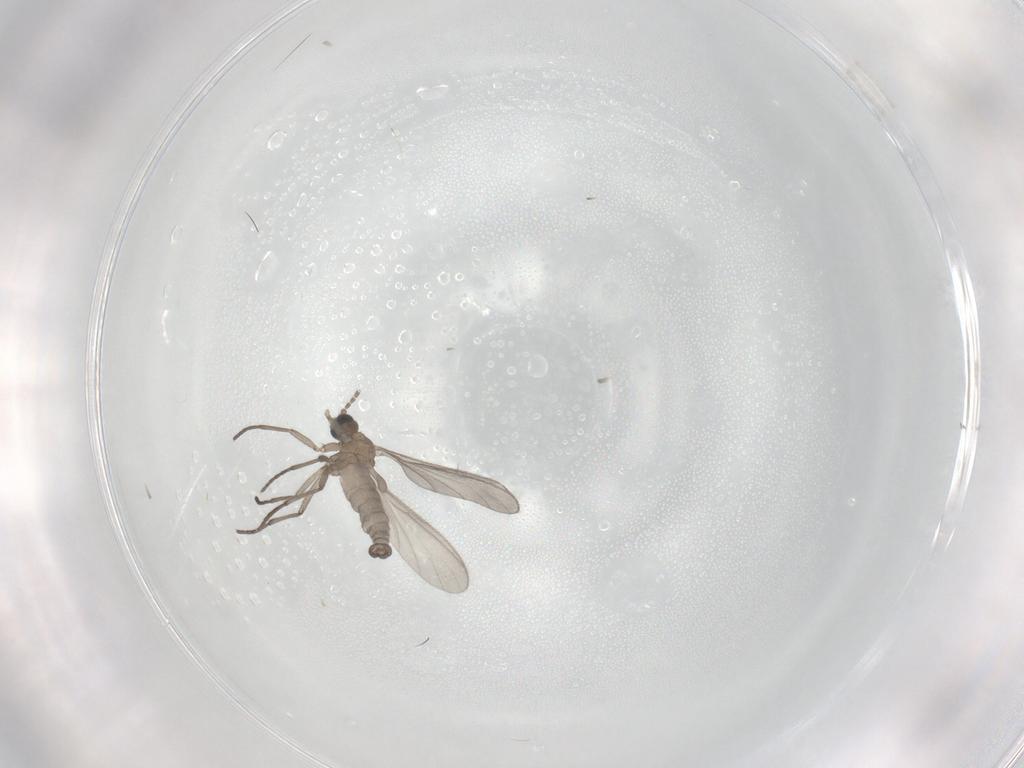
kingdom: Animalia
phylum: Arthropoda
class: Insecta
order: Diptera
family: Sciaridae
